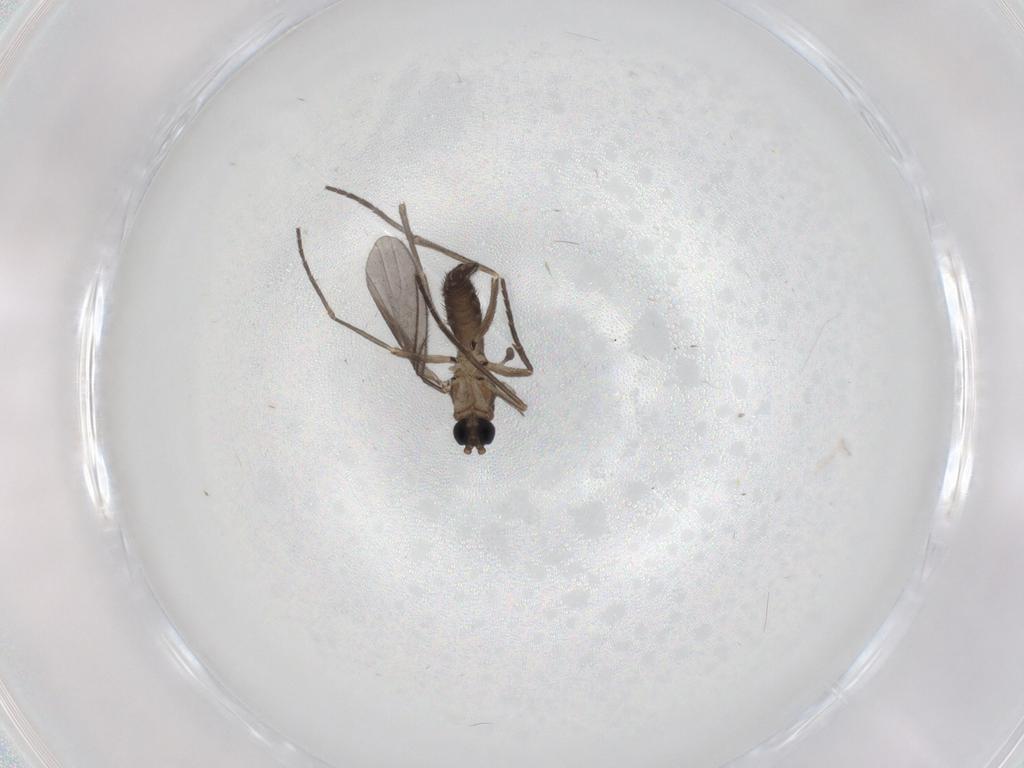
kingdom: Animalia
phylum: Arthropoda
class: Insecta
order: Diptera
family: Sciaridae
